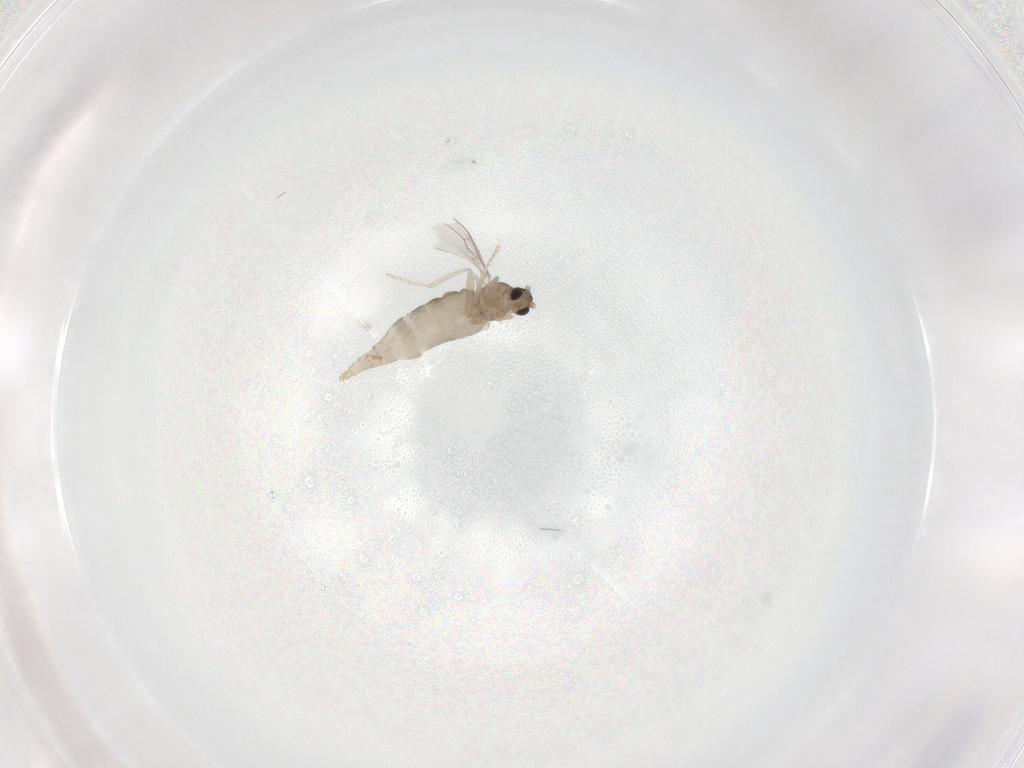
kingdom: Animalia
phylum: Arthropoda
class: Insecta
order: Diptera
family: Cecidomyiidae
